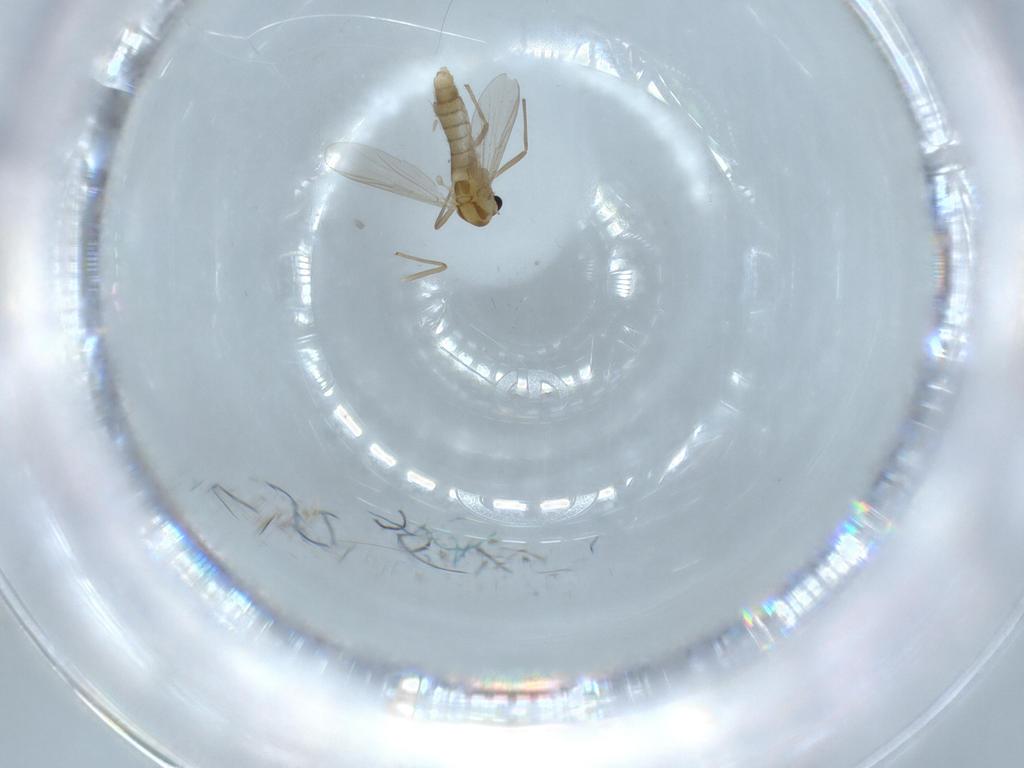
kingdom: Animalia
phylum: Arthropoda
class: Insecta
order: Diptera
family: Chironomidae
